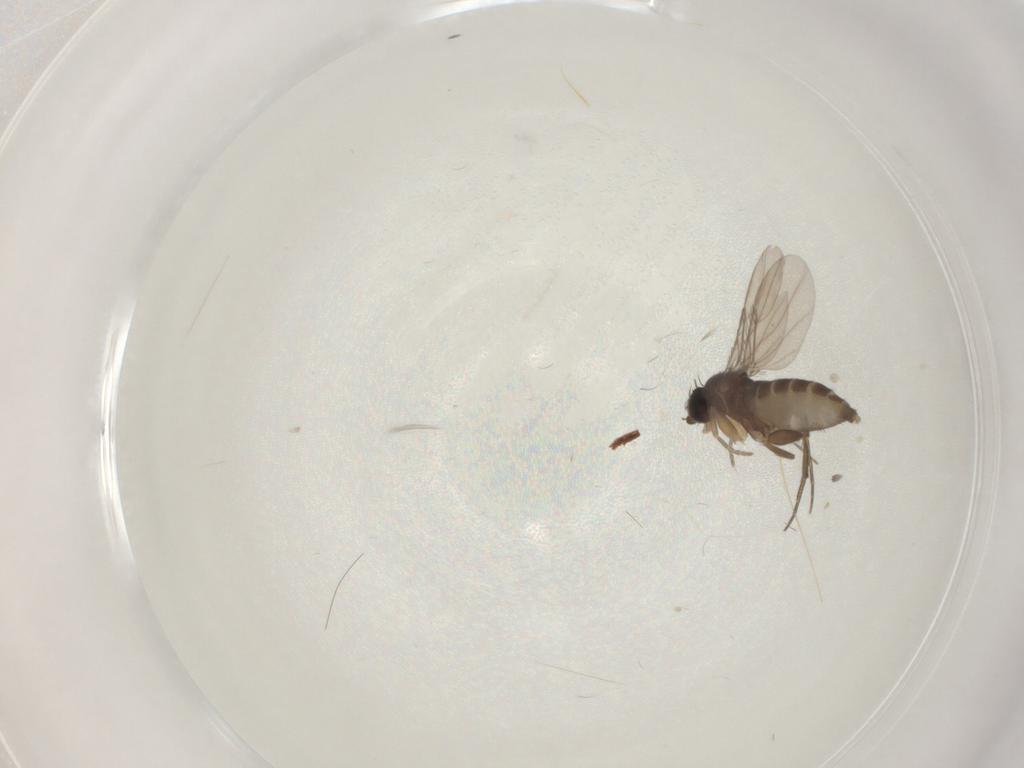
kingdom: Animalia
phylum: Arthropoda
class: Insecta
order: Diptera
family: Phoridae
